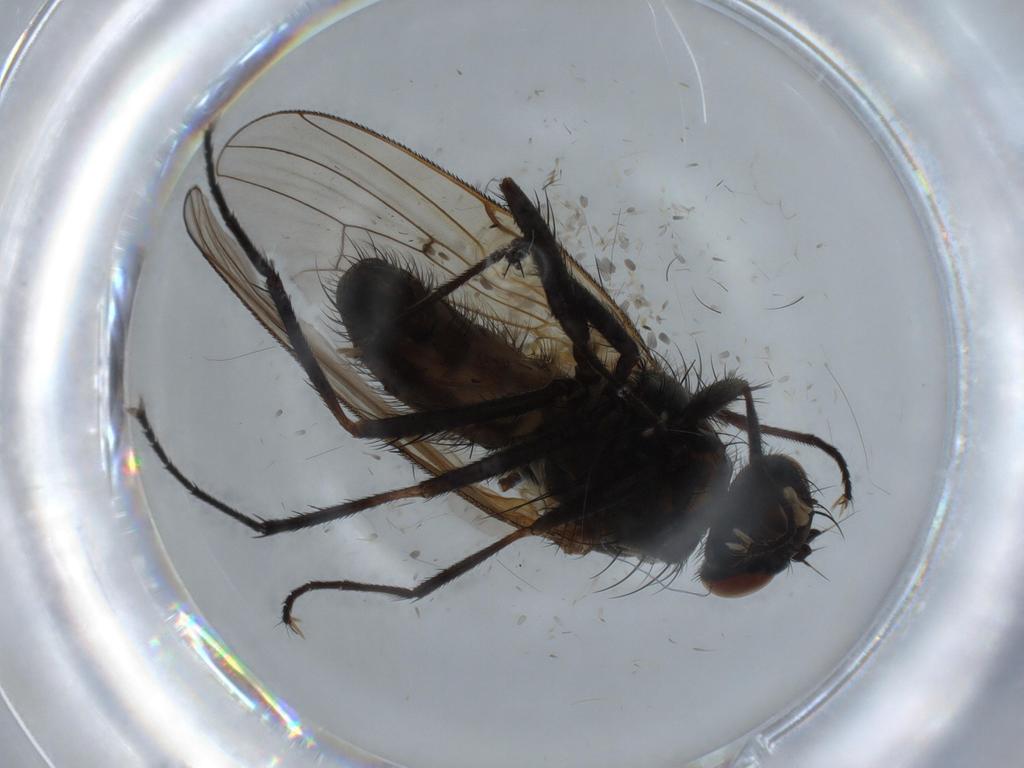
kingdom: Animalia
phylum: Arthropoda
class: Insecta
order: Diptera
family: Anthomyiidae
